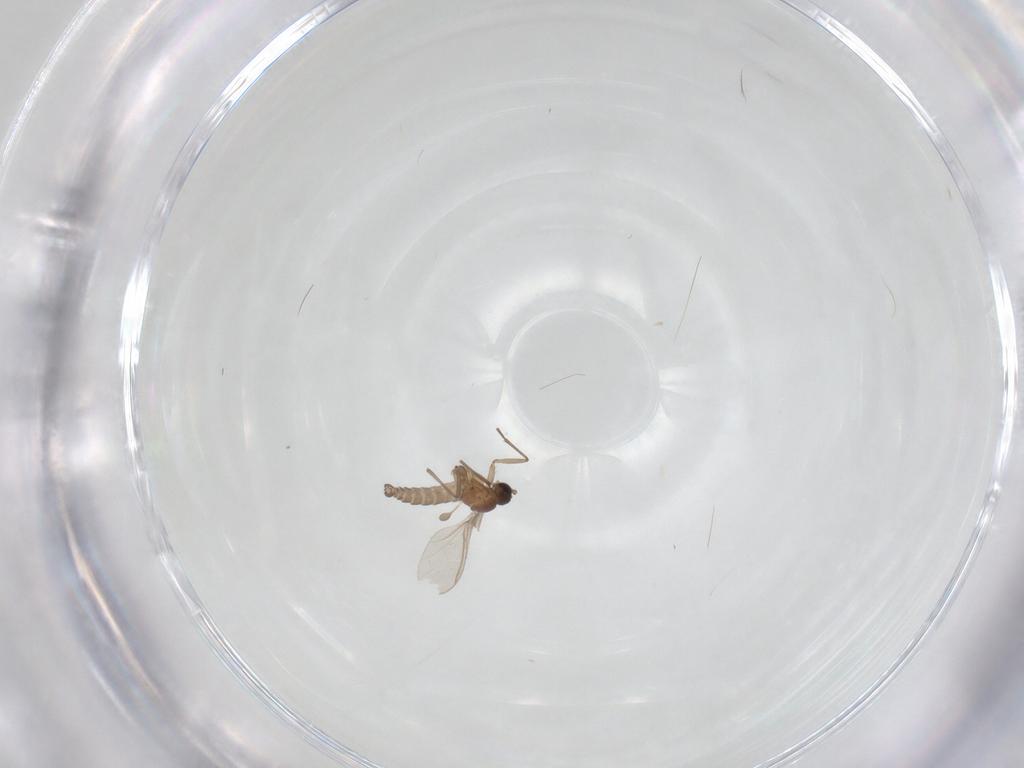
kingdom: Animalia
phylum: Arthropoda
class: Insecta
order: Diptera
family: Sciaridae
